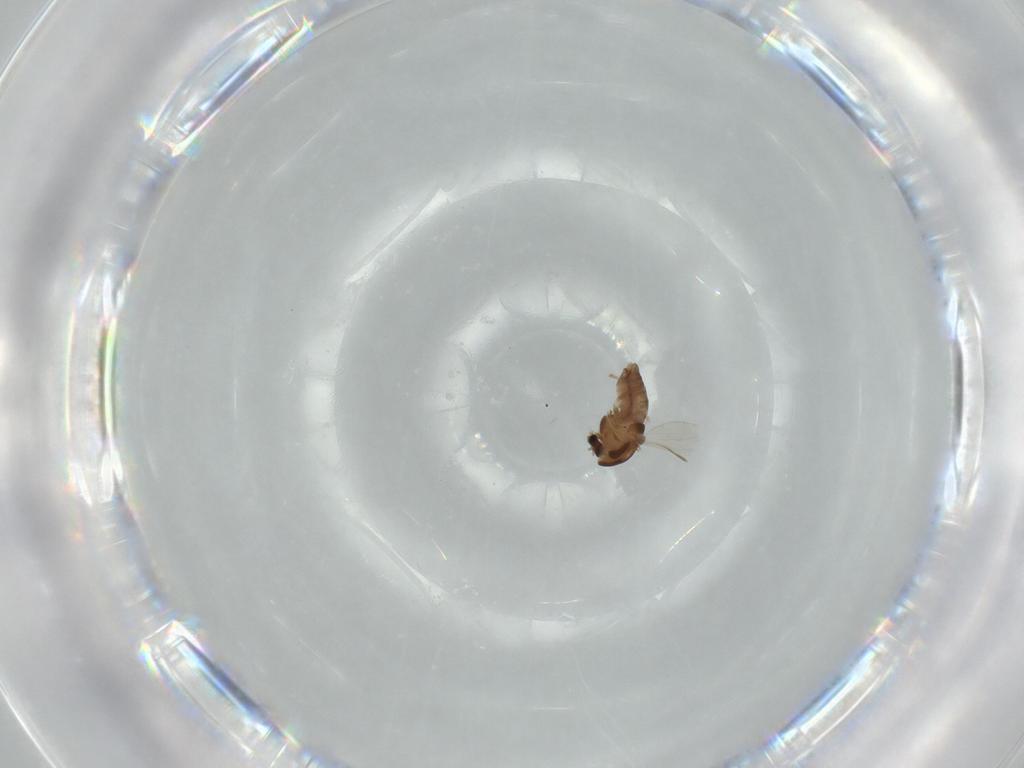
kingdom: Animalia
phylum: Arthropoda
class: Insecta
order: Diptera
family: Chironomidae
